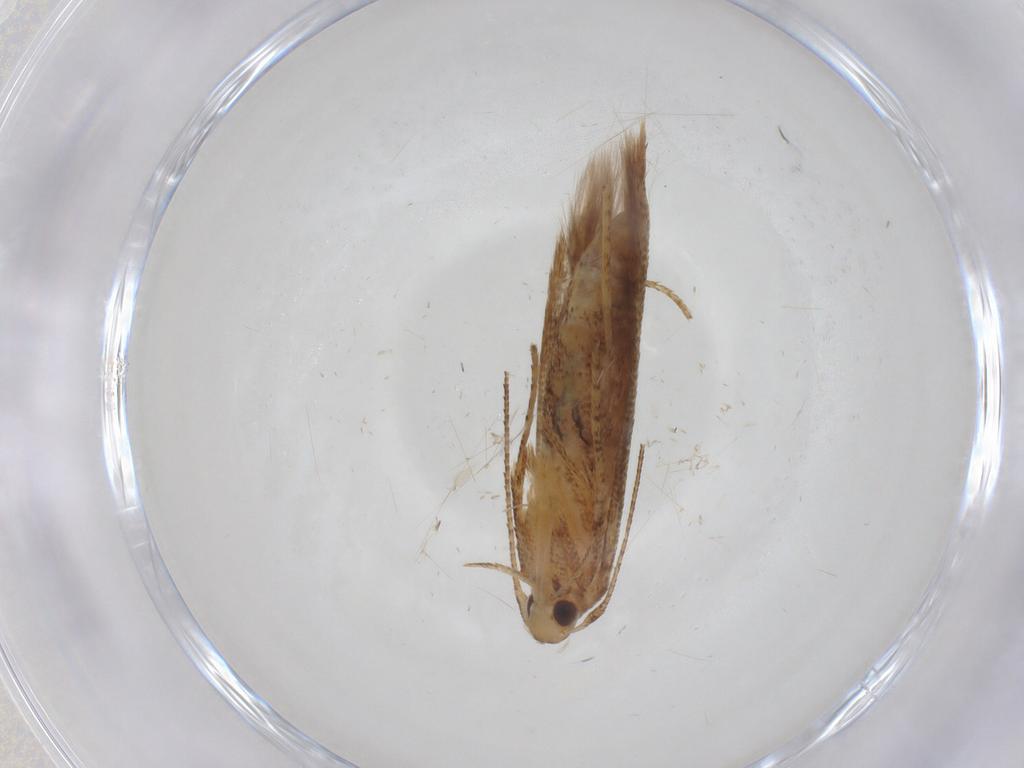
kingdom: Animalia
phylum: Arthropoda
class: Insecta
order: Lepidoptera
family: Erebidae
